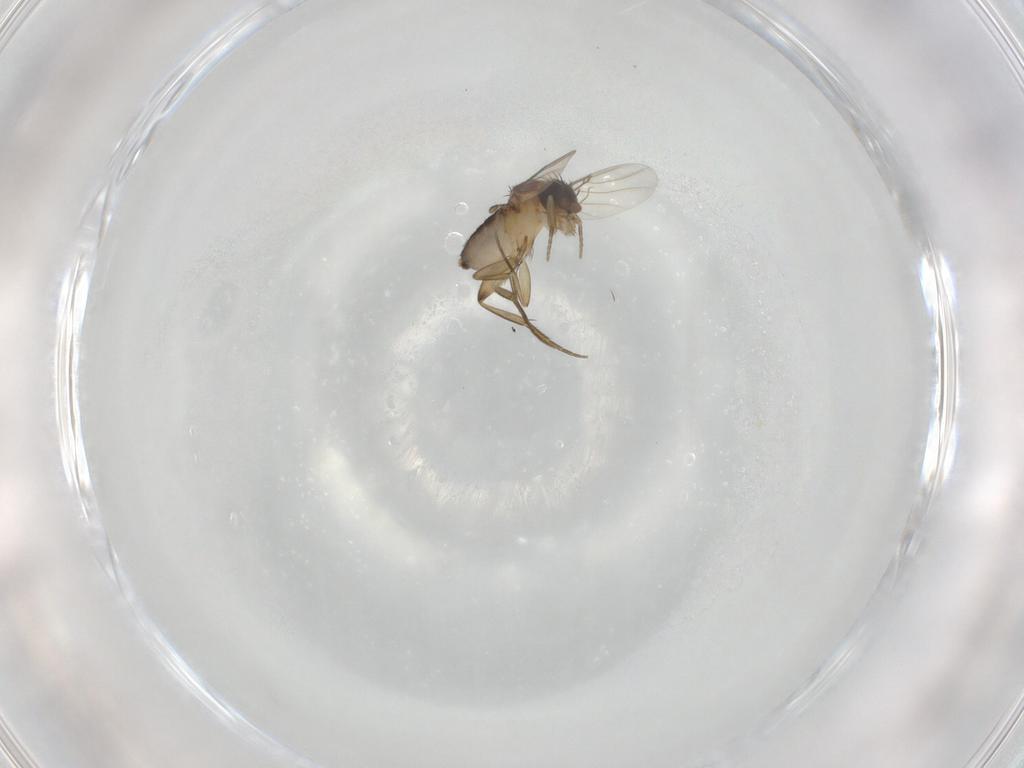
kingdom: Animalia
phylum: Arthropoda
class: Insecta
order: Diptera
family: Phoridae
